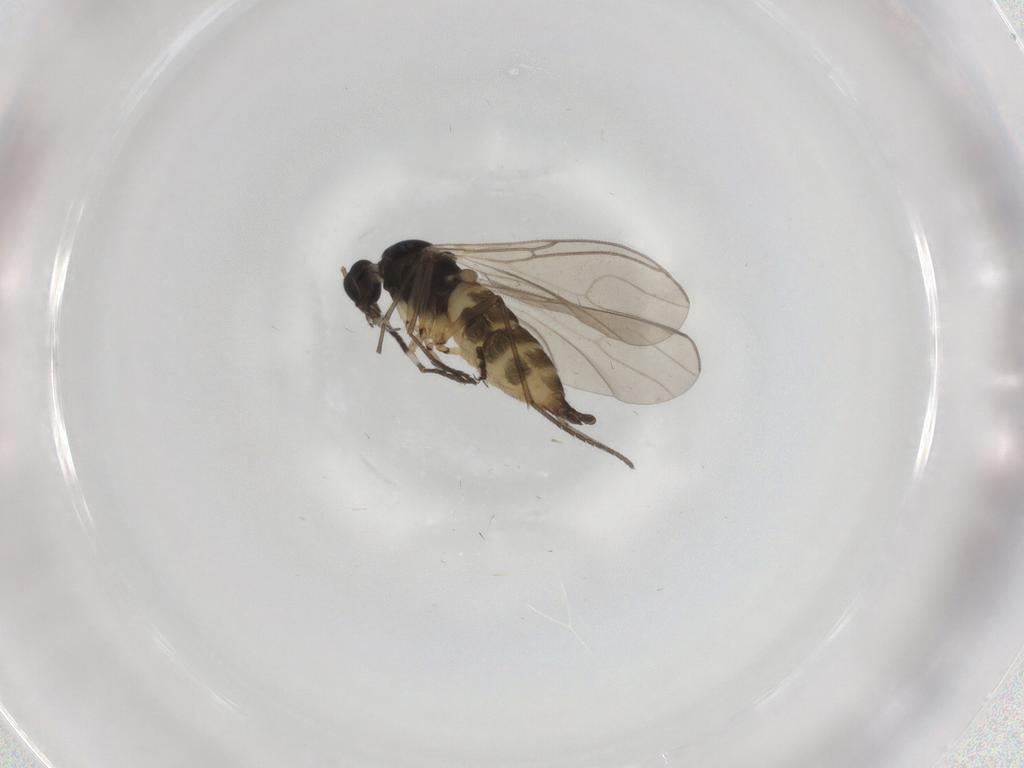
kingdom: Animalia
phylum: Arthropoda
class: Insecta
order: Diptera
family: Sciaridae
